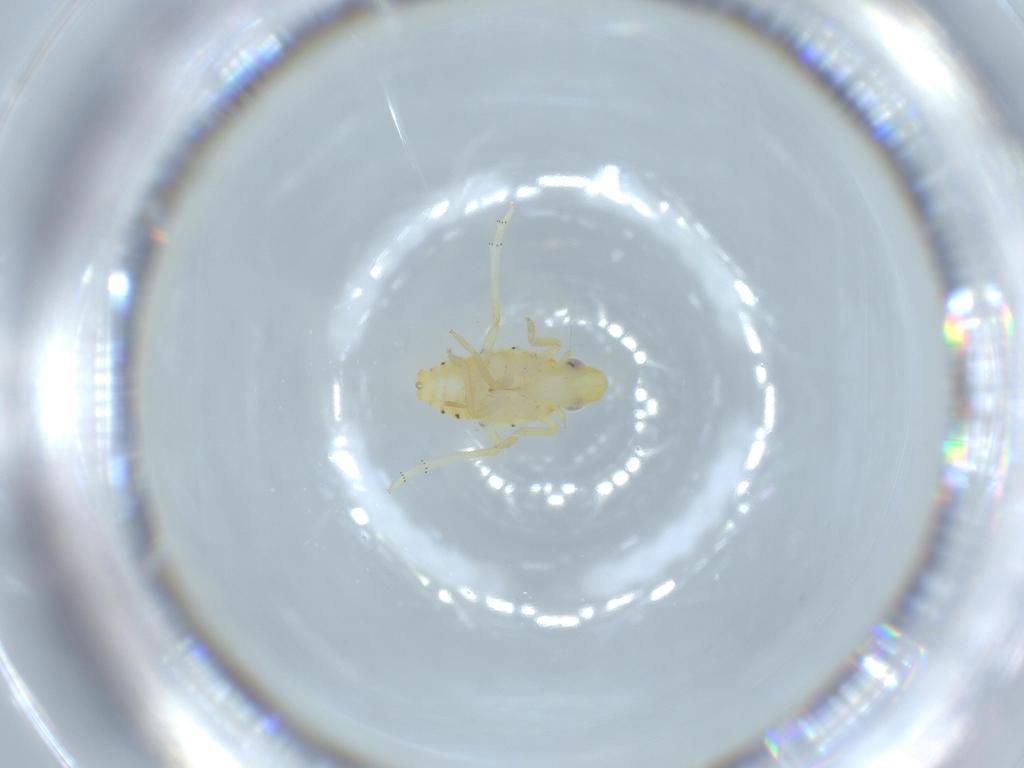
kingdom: Animalia
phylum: Arthropoda
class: Insecta
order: Hemiptera
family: Tropiduchidae
